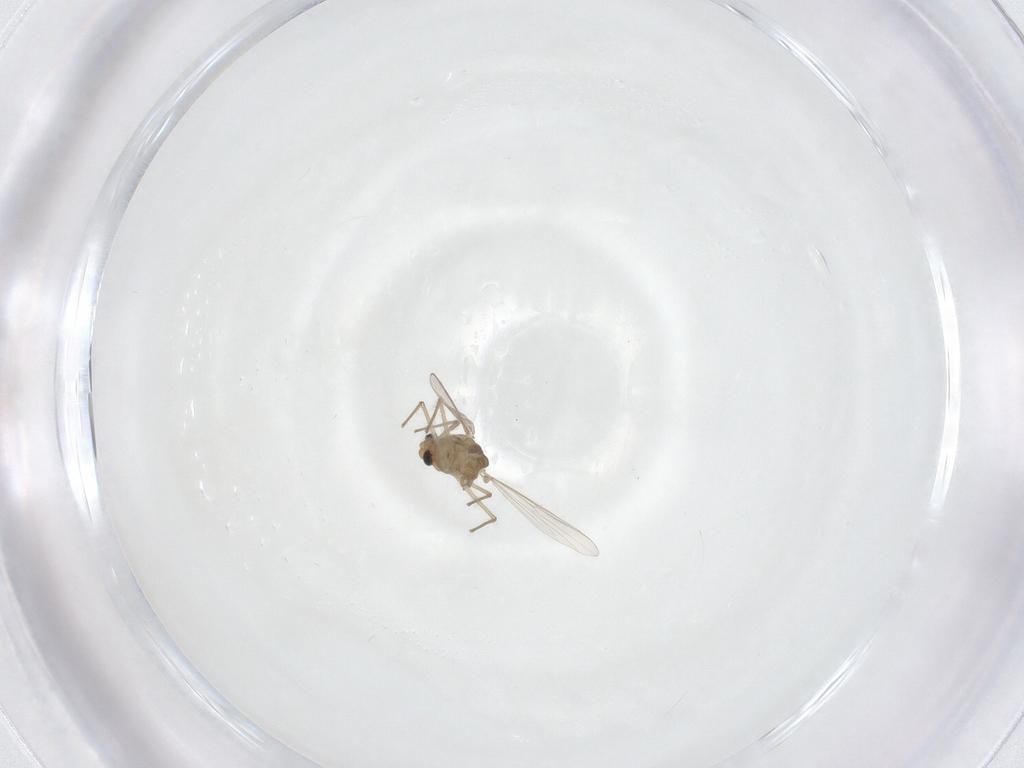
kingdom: Animalia
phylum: Arthropoda
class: Insecta
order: Diptera
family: Chironomidae
